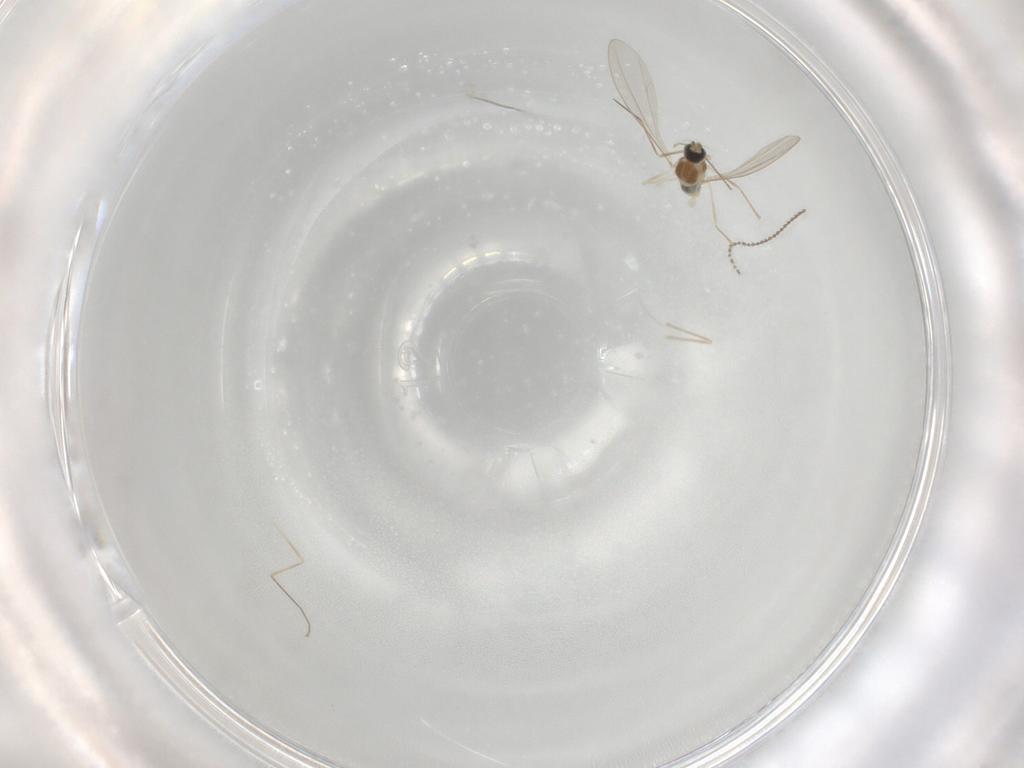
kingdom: Animalia
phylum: Arthropoda
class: Insecta
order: Diptera
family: Cecidomyiidae
